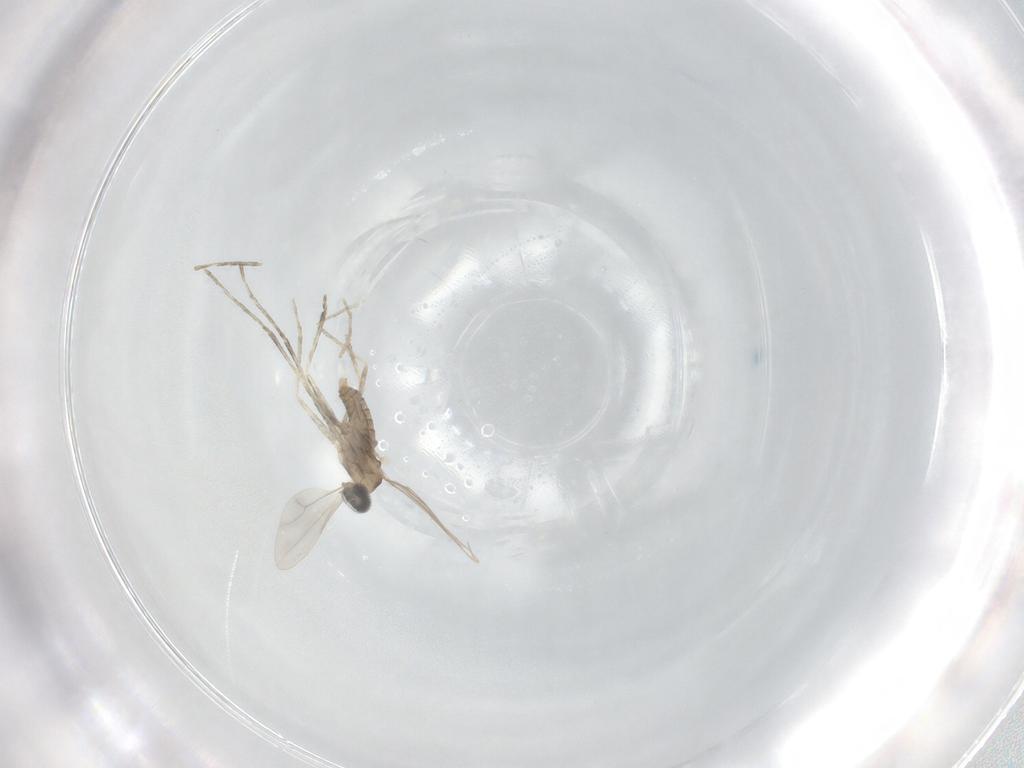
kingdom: Animalia
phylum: Arthropoda
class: Insecta
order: Diptera
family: Cecidomyiidae
